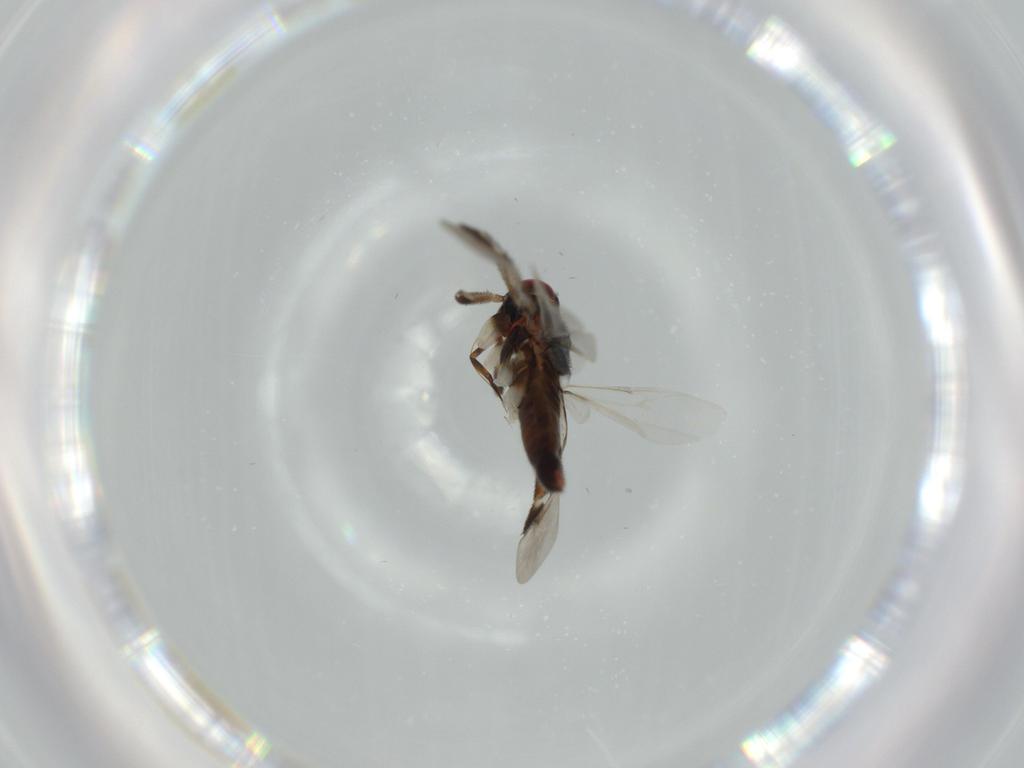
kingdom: Animalia
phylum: Arthropoda
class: Insecta
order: Hemiptera
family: Miridae
